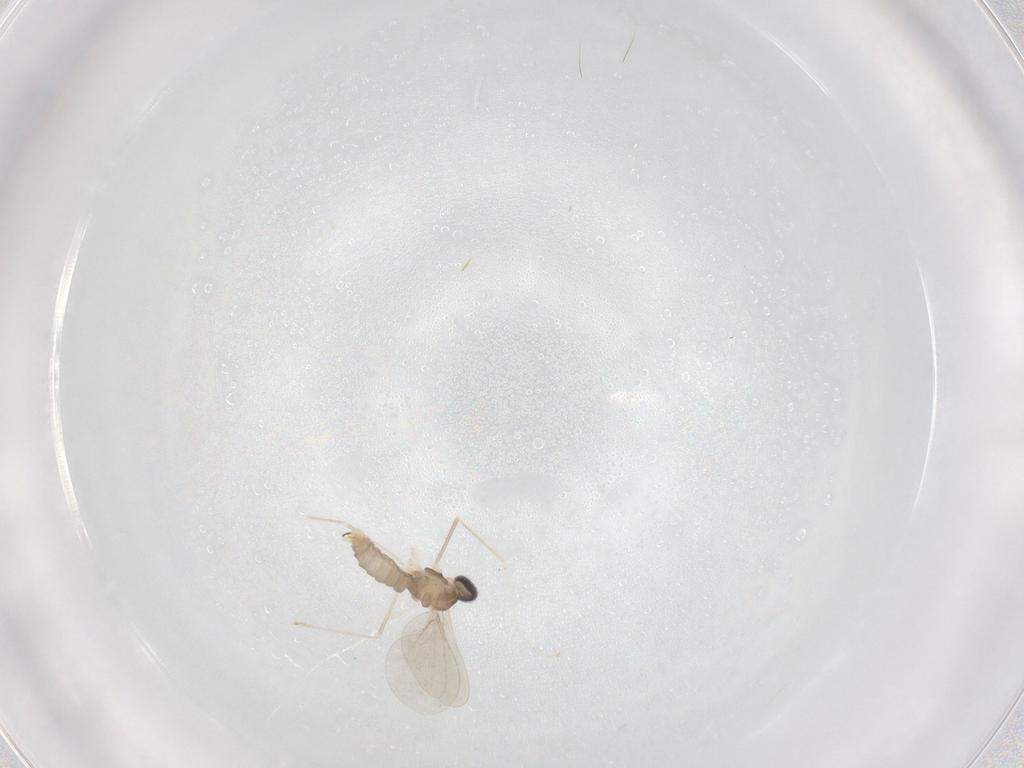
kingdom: Animalia
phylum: Arthropoda
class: Insecta
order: Diptera
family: Cecidomyiidae
